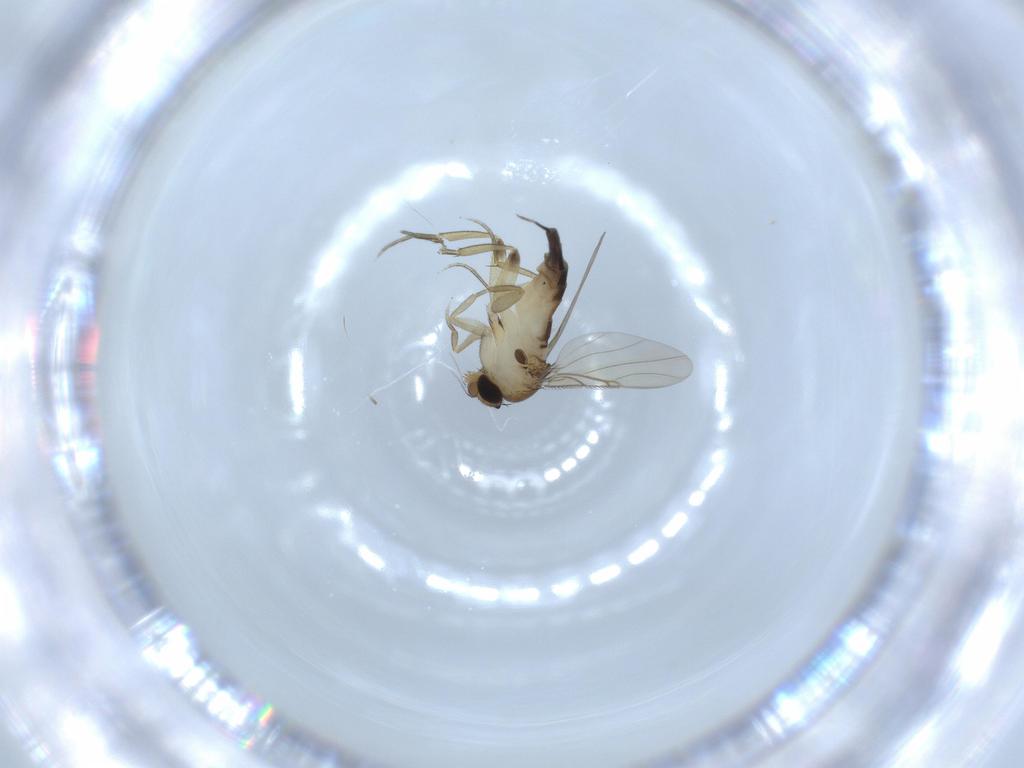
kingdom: Animalia
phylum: Arthropoda
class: Insecta
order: Diptera
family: Phoridae
